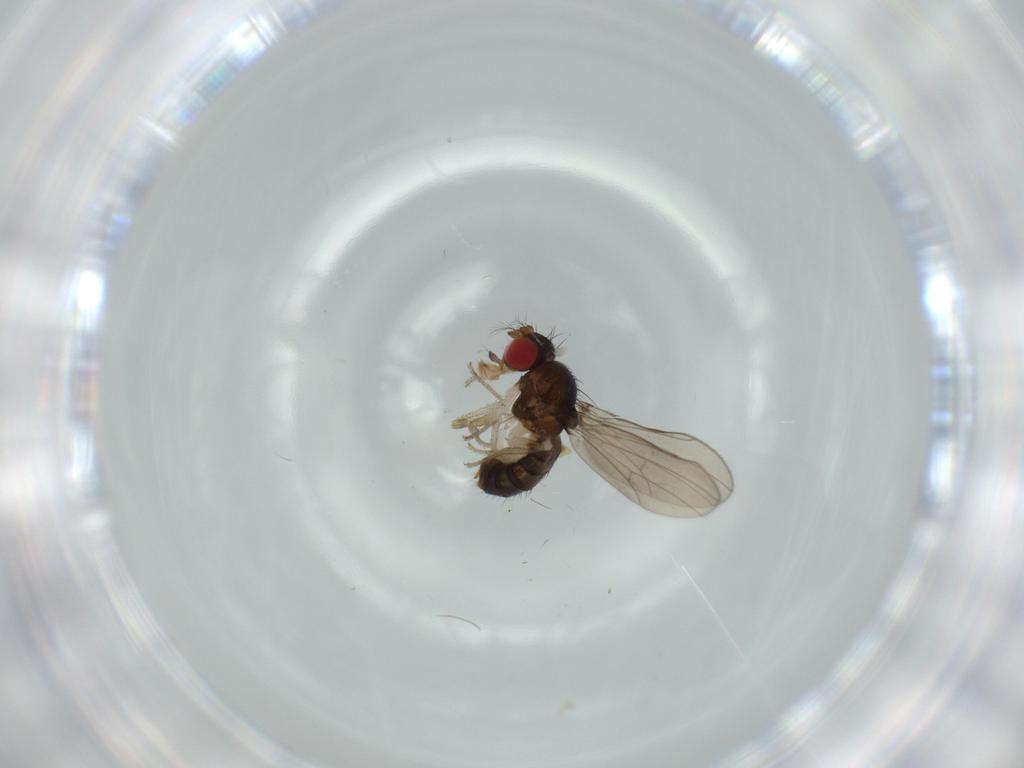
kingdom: Animalia
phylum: Arthropoda
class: Insecta
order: Diptera
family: Drosophilidae
